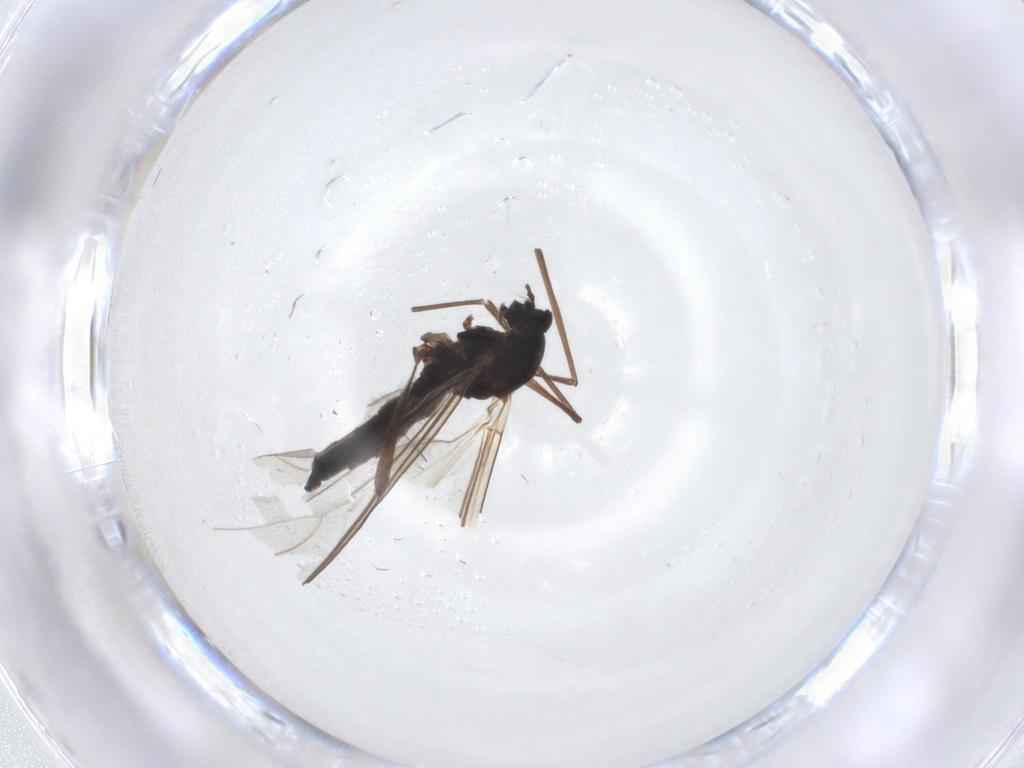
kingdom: Animalia
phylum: Arthropoda
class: Insecta
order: Diptera
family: Cecidomyiidae
